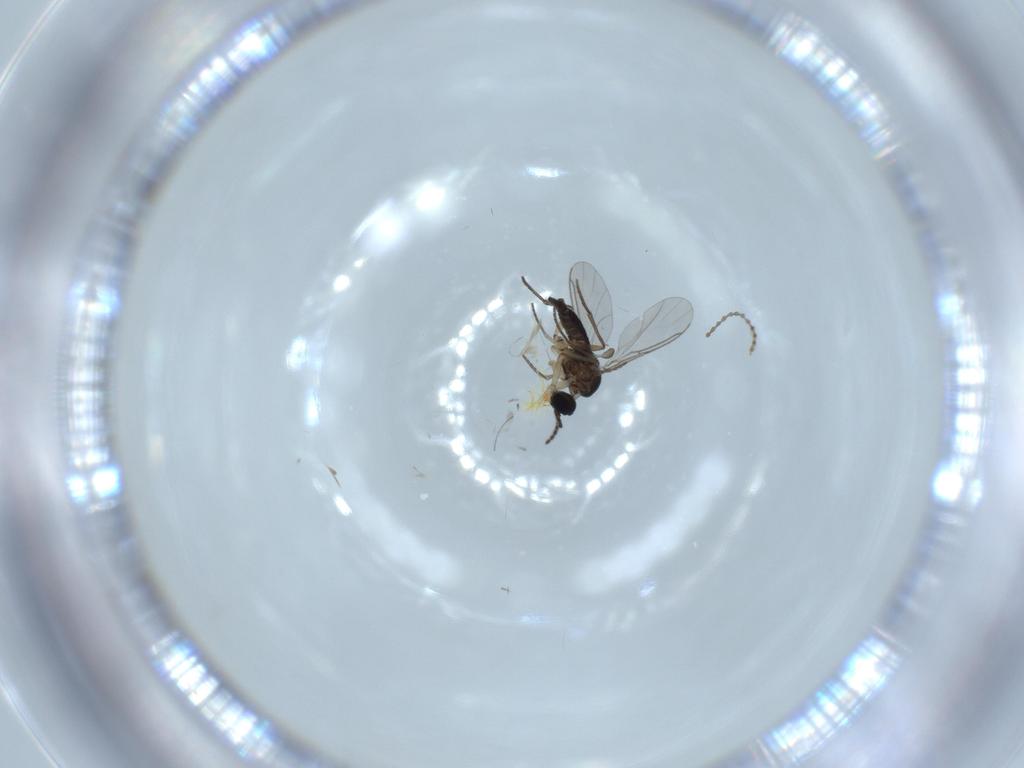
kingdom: Animalia
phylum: Arthropoda
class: Insecta
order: Diptera
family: Sciaridae
